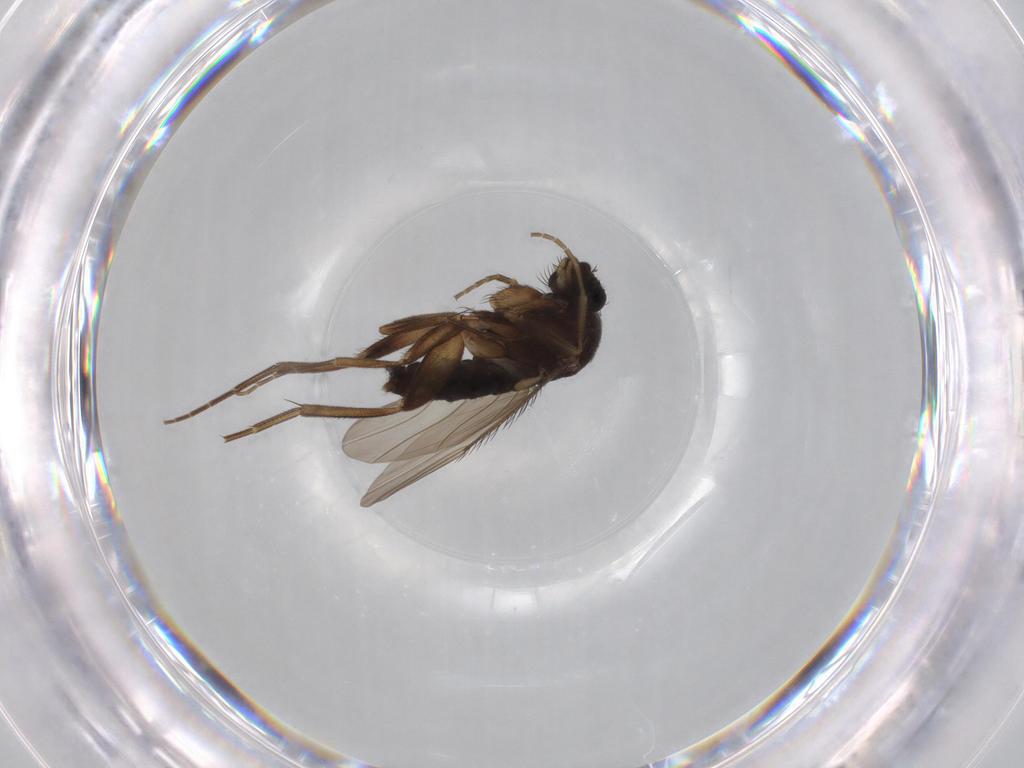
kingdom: Animalia
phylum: Arthropoda
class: Insecta
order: Diptera
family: Phoridae
